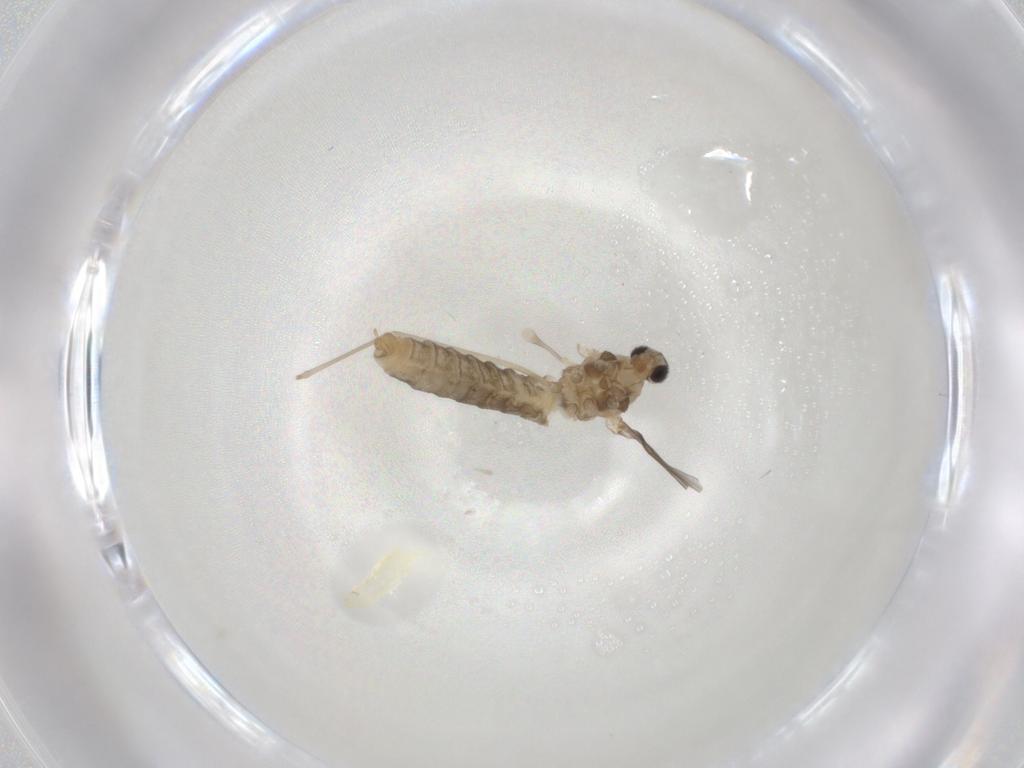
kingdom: Animalia
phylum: Arthropoda
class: Insecta
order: Diptera
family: Cecidomyiidae
